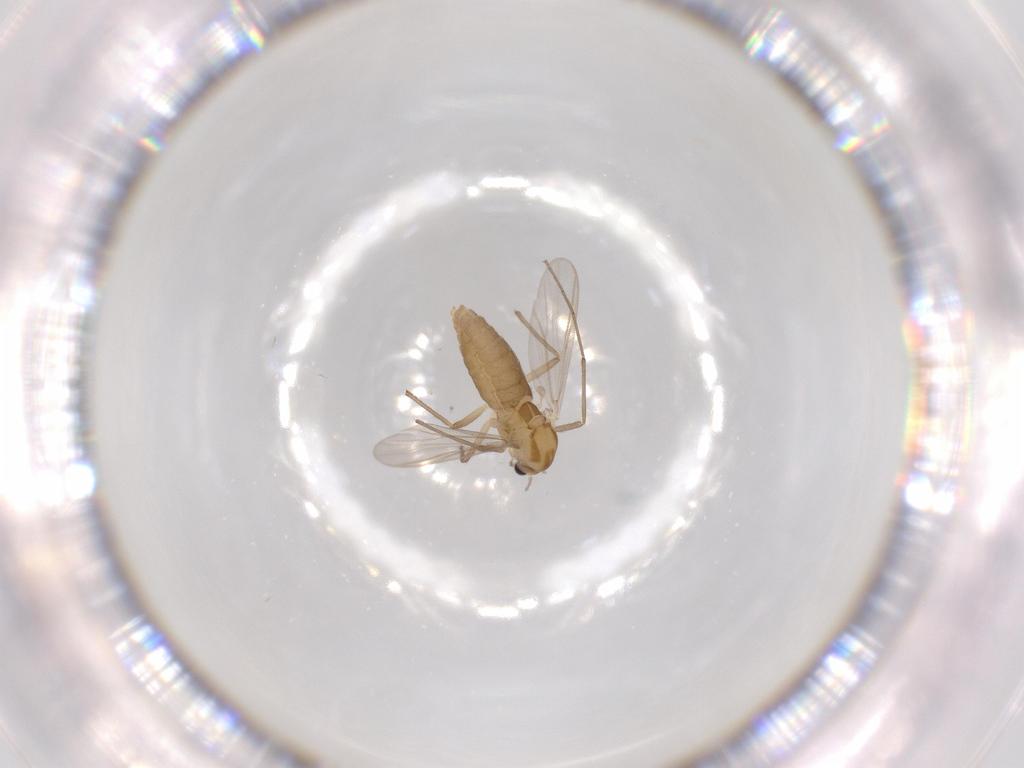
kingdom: Animalia
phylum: Arthropoda
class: Insecta
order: Diptera
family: Chironomidae
